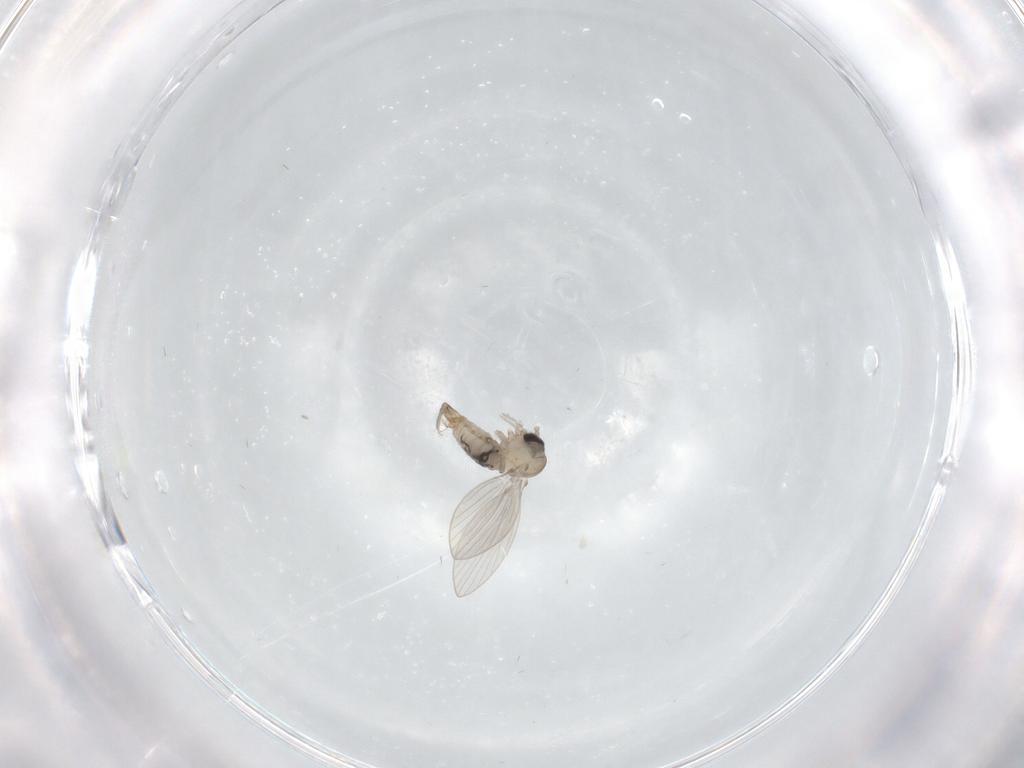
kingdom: Animalia
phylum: Arthropoda
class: Insecta
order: Diptera
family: Psychodidae
